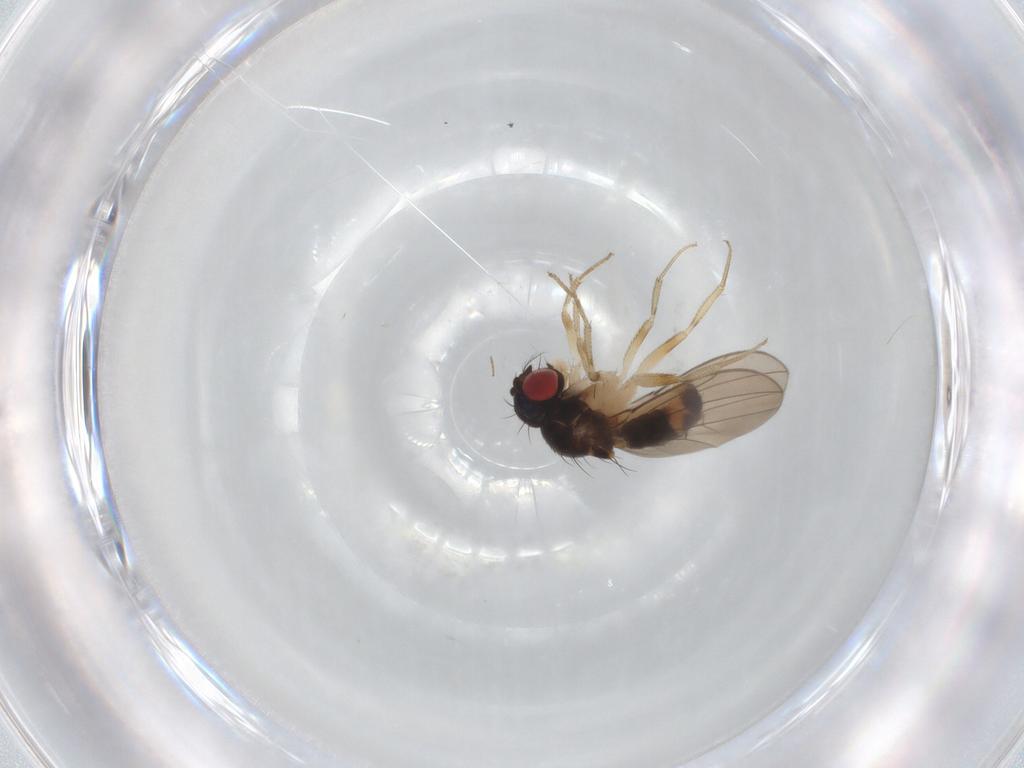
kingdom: Animalia
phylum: Arthropoda
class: Insecta
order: Diptera
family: Drosophilidae
